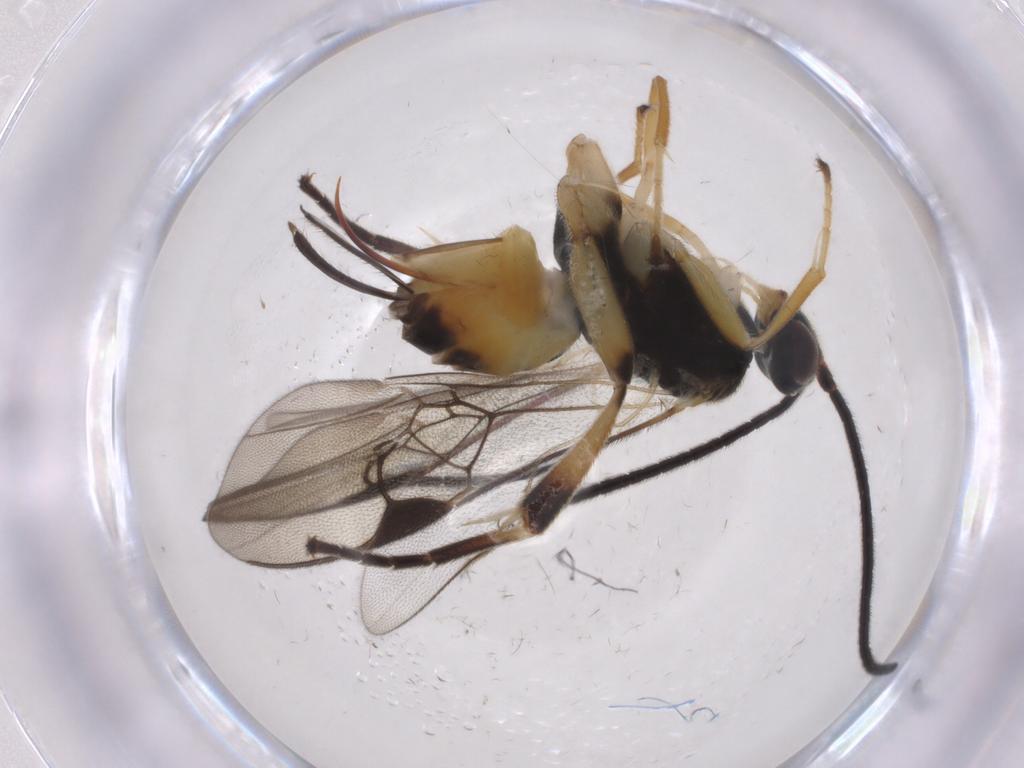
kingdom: Animalia
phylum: Arthropoda
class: Insecta
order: Hymenoptera
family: Braconidae
